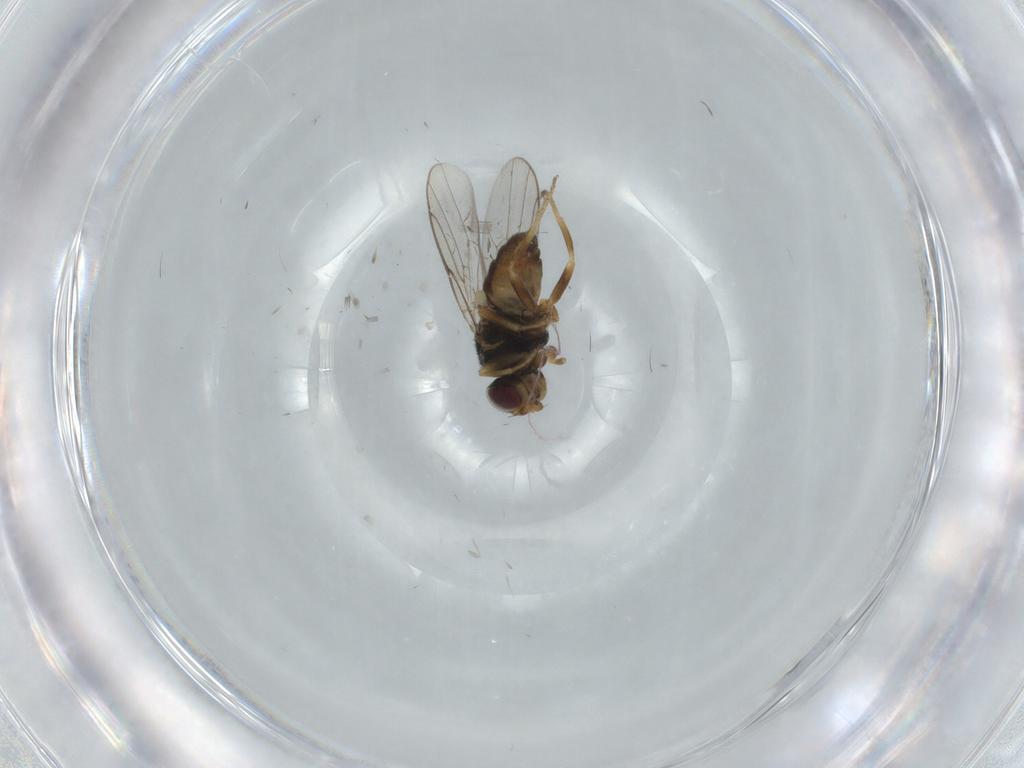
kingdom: Animalia
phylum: Arthropoda
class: Insecta
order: Diptera
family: Chloropidae
